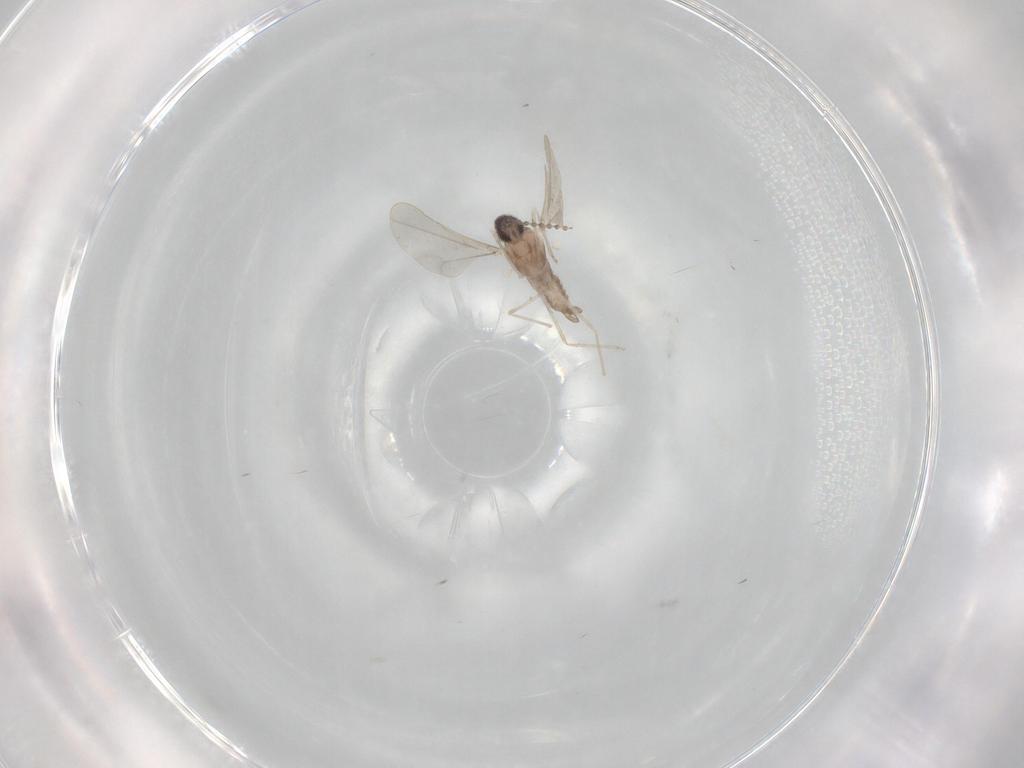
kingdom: Animalia
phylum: Arthropoda
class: Insecta
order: Diptera
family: Cecidomyiidae
